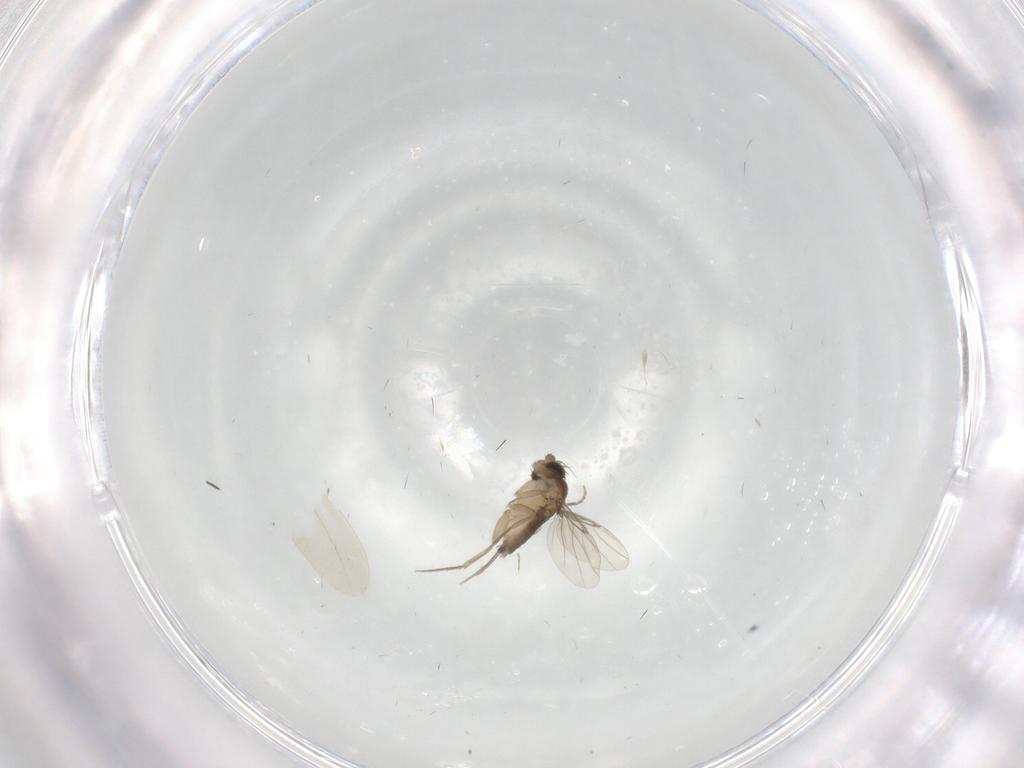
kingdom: Animalia
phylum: Arthropoda
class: Insecta
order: Diptera
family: Phoridae
